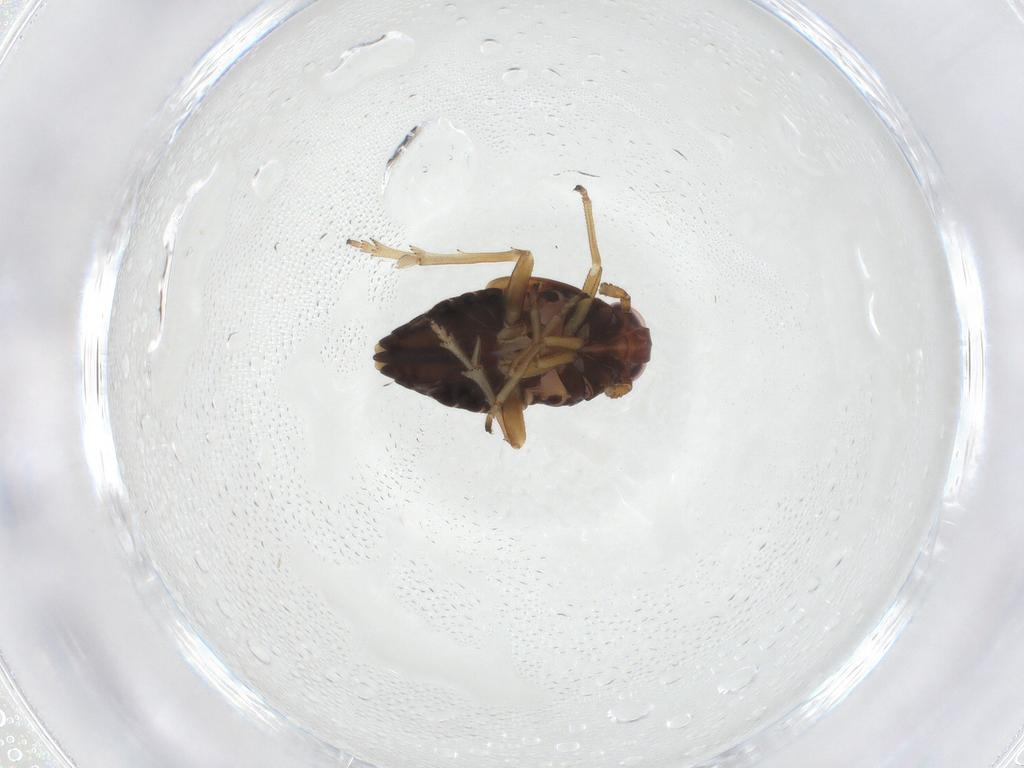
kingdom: Animalia
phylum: Arthropoda
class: Insecta
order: Hemiptera
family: Delphacidae
